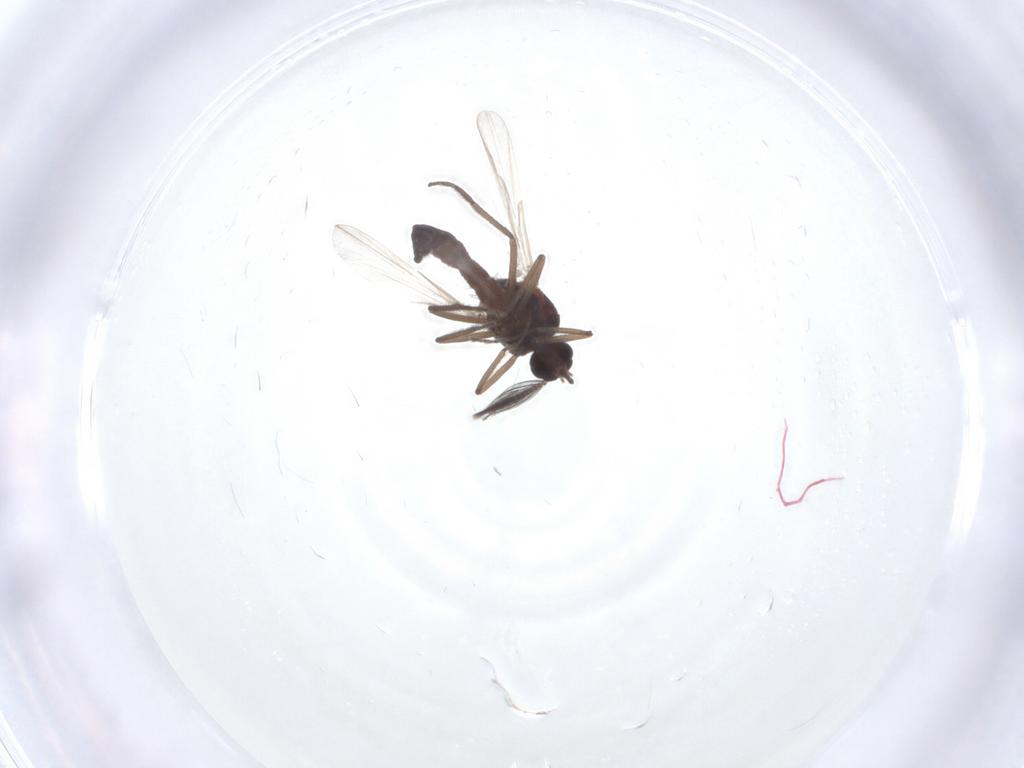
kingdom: Animalia
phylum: Arthropoda
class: Insecta
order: Diptera
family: Ceratopogonidae
